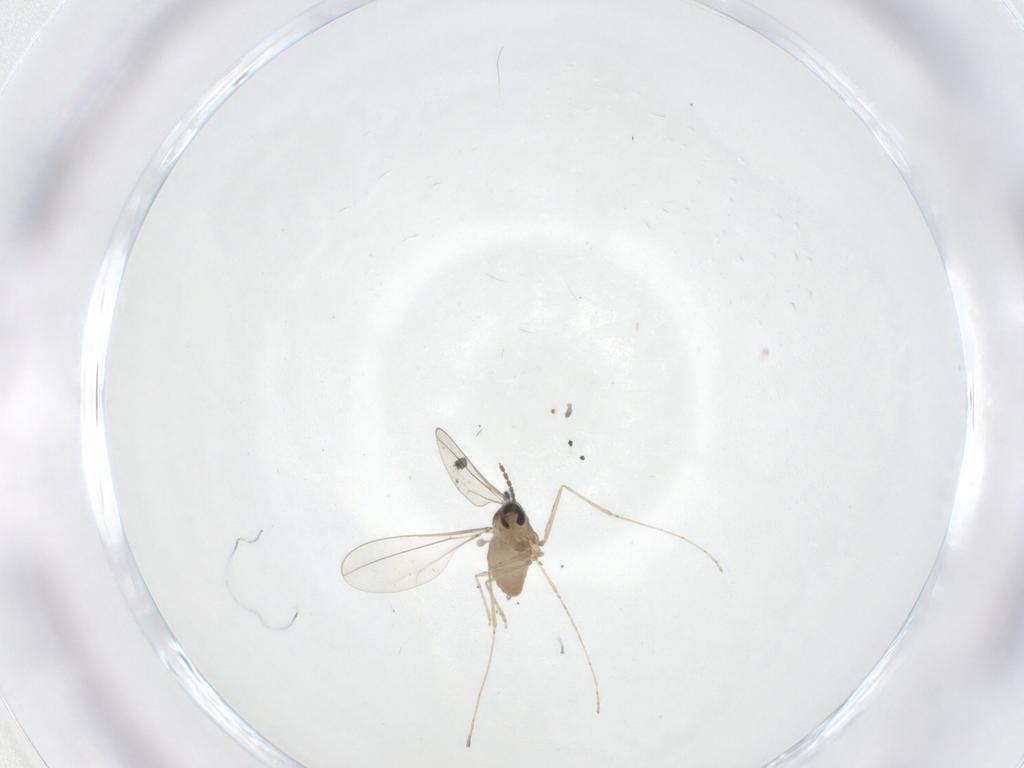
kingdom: Animalia
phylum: Arthropoda
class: Insecta
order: Diptera
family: Cecidomyiidae
